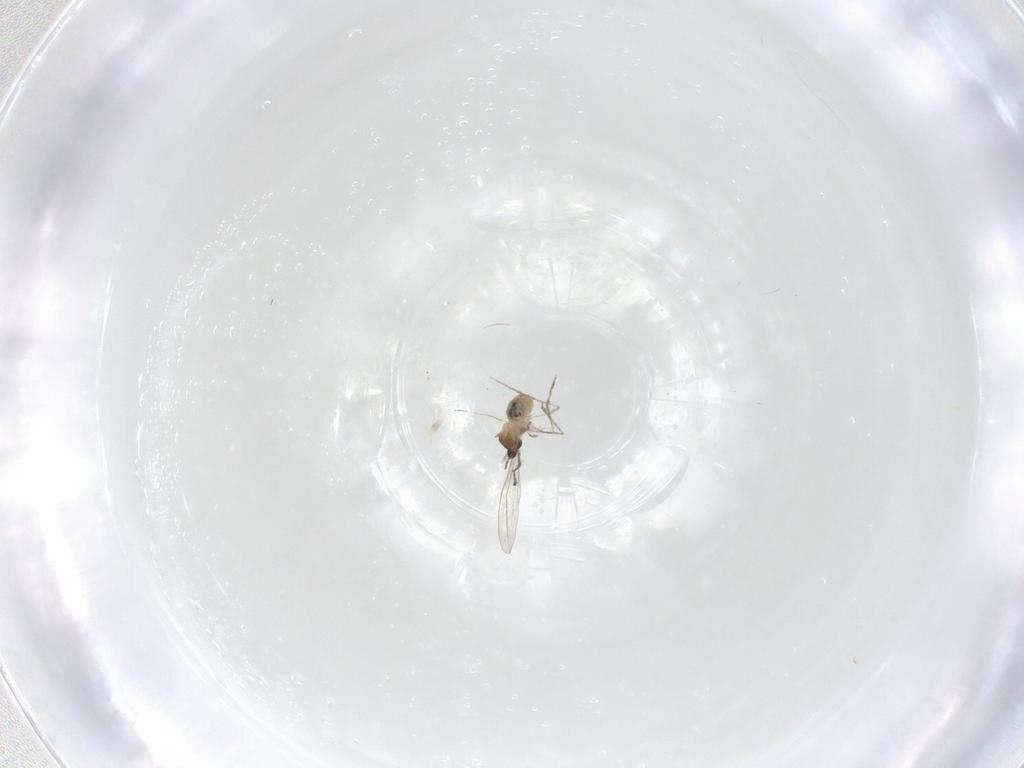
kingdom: Animalia
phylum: Arthropoda
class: Insecta
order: Diptera
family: Cecidomyiidae
